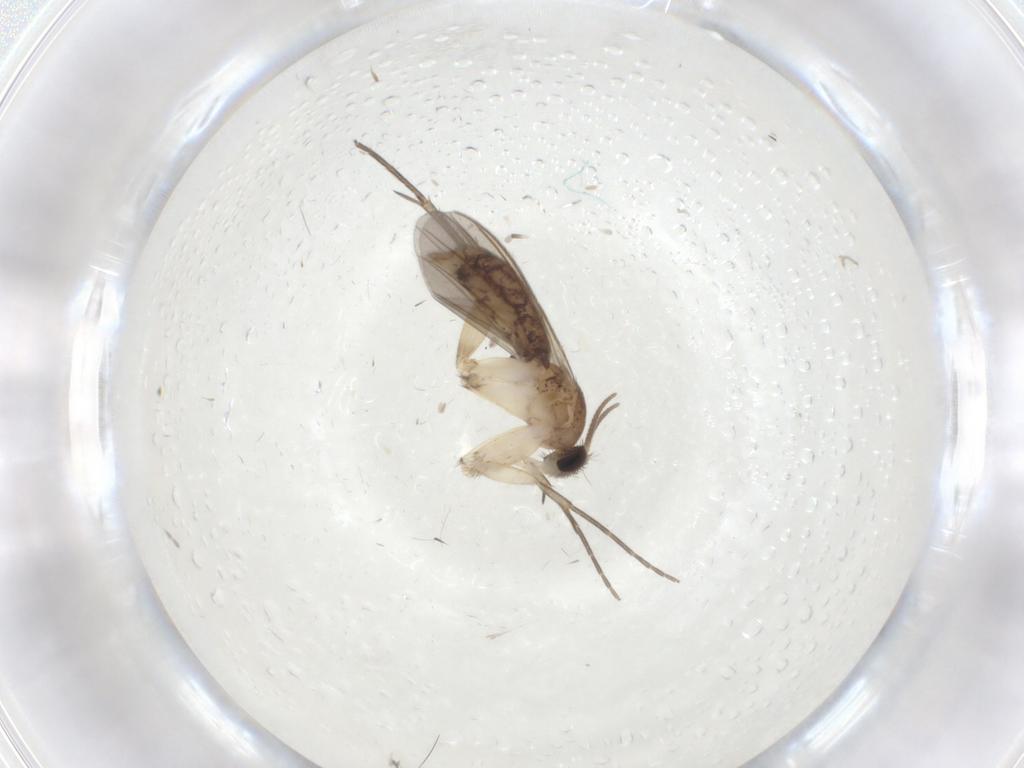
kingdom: Animalia
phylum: Arthropoda
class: Insecta
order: Diptera
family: Mycetophilidae
